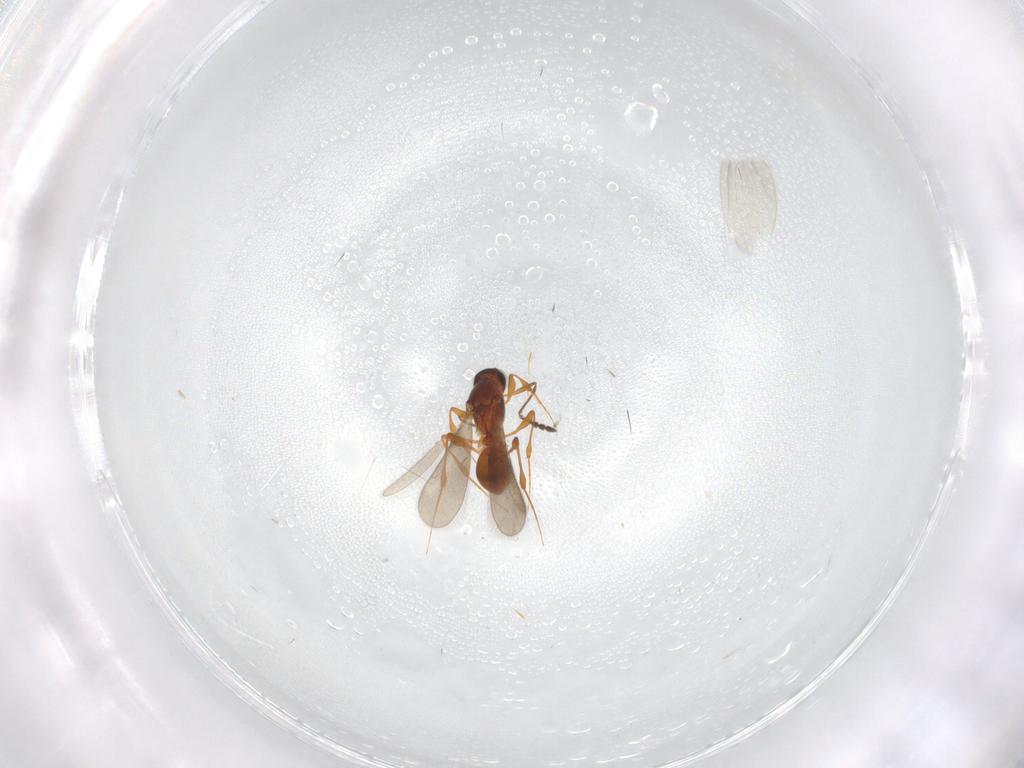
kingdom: Animalia
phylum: Arthropoda
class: Insecta
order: Hymenoptera
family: Platygastridae
